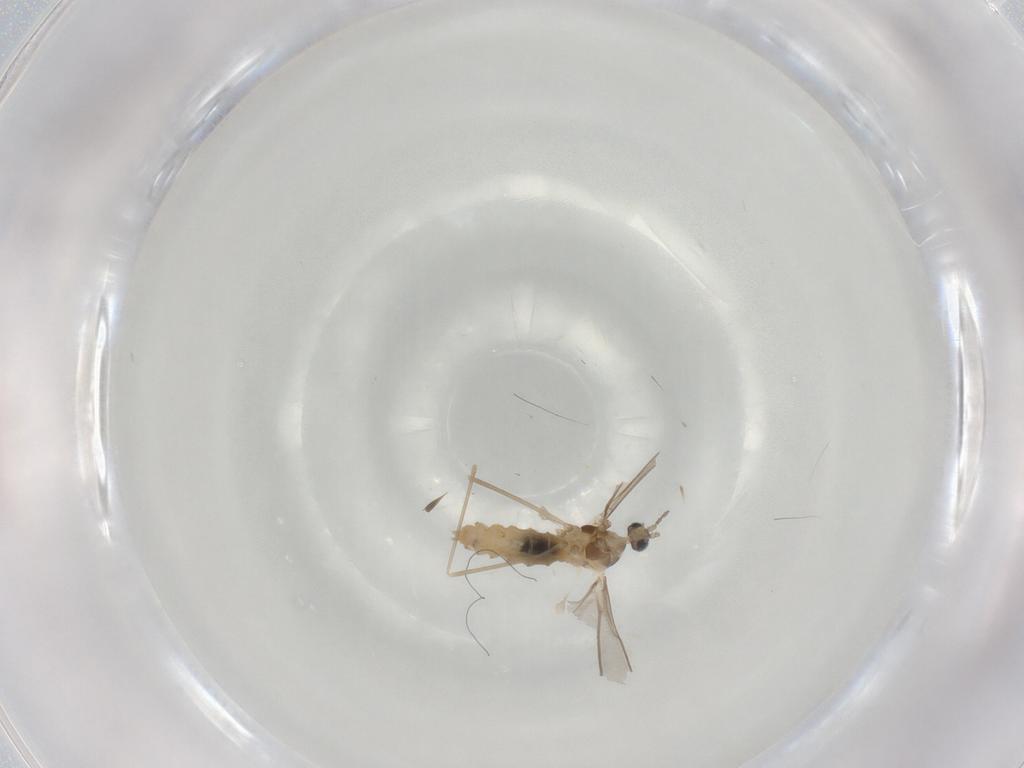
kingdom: Animalia
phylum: Arthropoda
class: Insecta
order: Diptera
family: Cecidomyiidae
